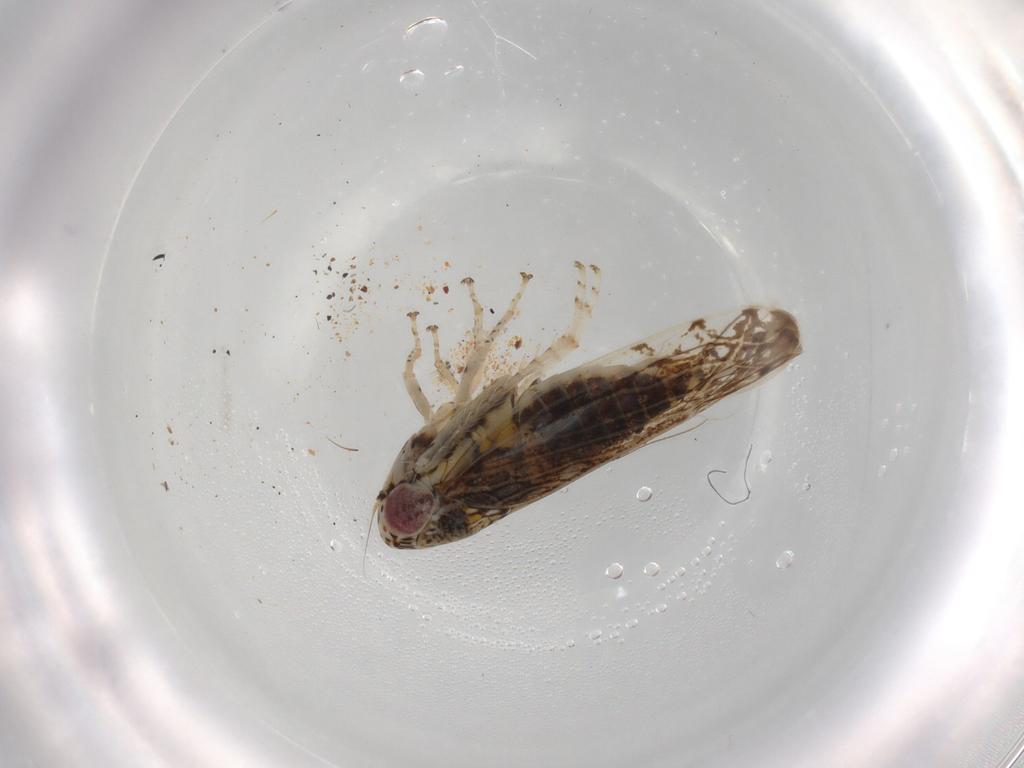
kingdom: Animalia
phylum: Arthropoda
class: Insecta
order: Hemiptera
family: Cicadellidae
